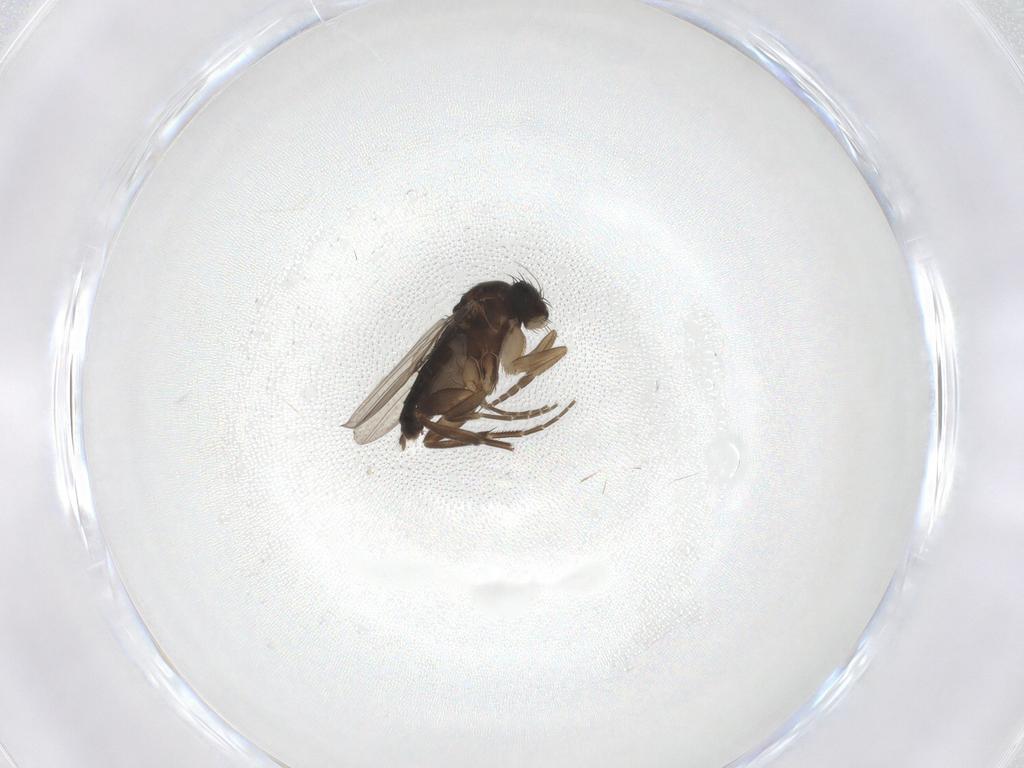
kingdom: Animalia
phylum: Arthropoda
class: Insecta
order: Diptera
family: Phoridae
